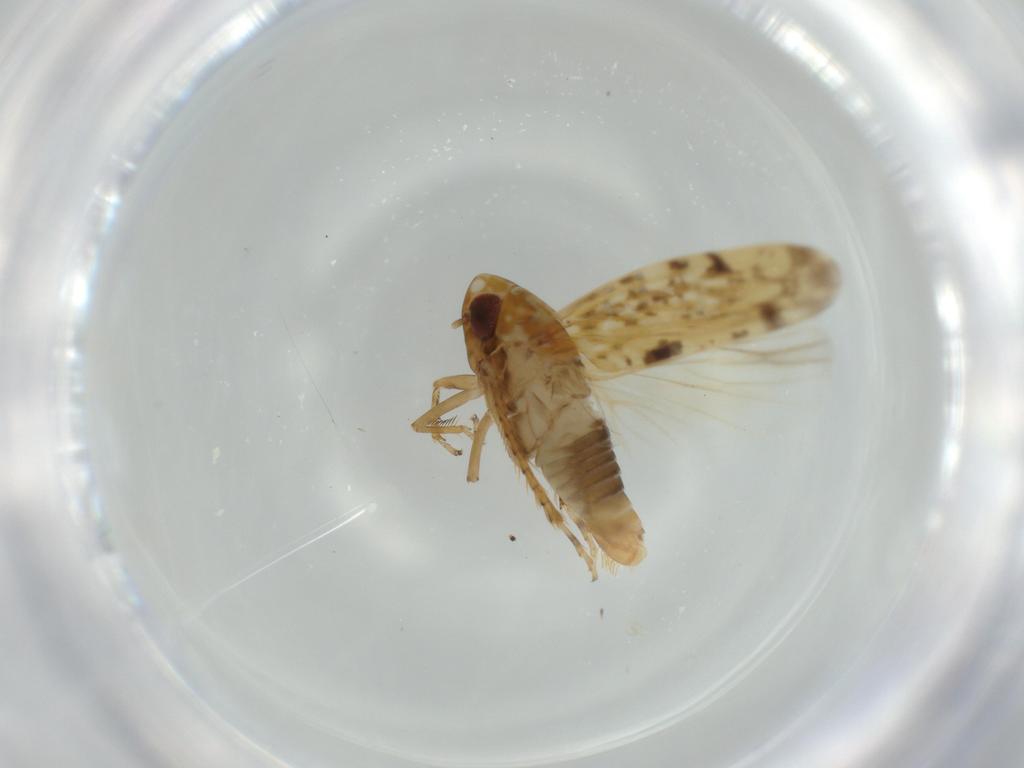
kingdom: Animalia
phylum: Arthropoda
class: Insecta
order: Hemiptera
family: Cicadellidae
